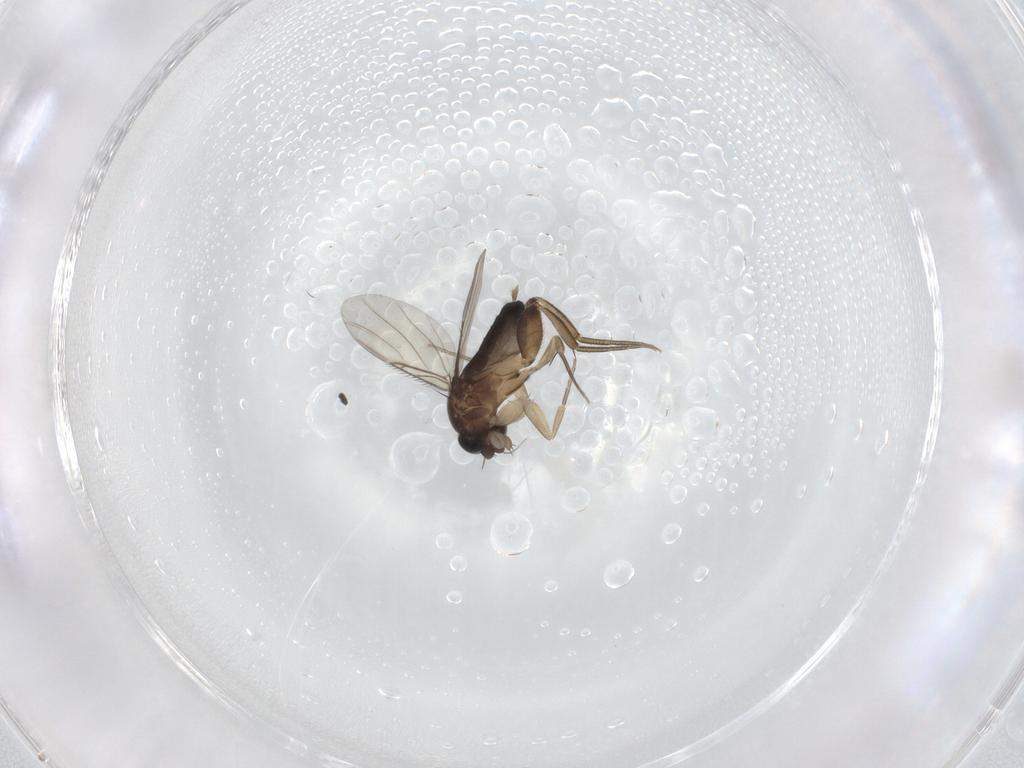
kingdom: Animalia
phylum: Arthropoda
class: Insecta
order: Diptera
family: Phoridae
